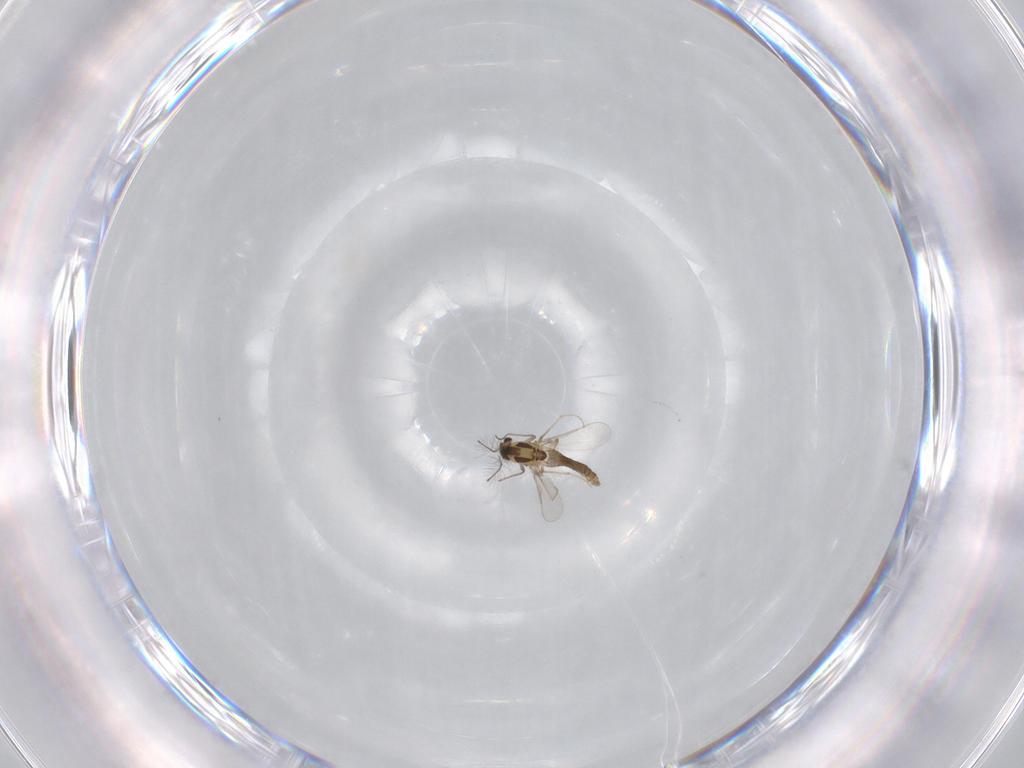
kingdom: Animalia
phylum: Arthropoda
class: Insecta
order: Diptera
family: Chironomidae
